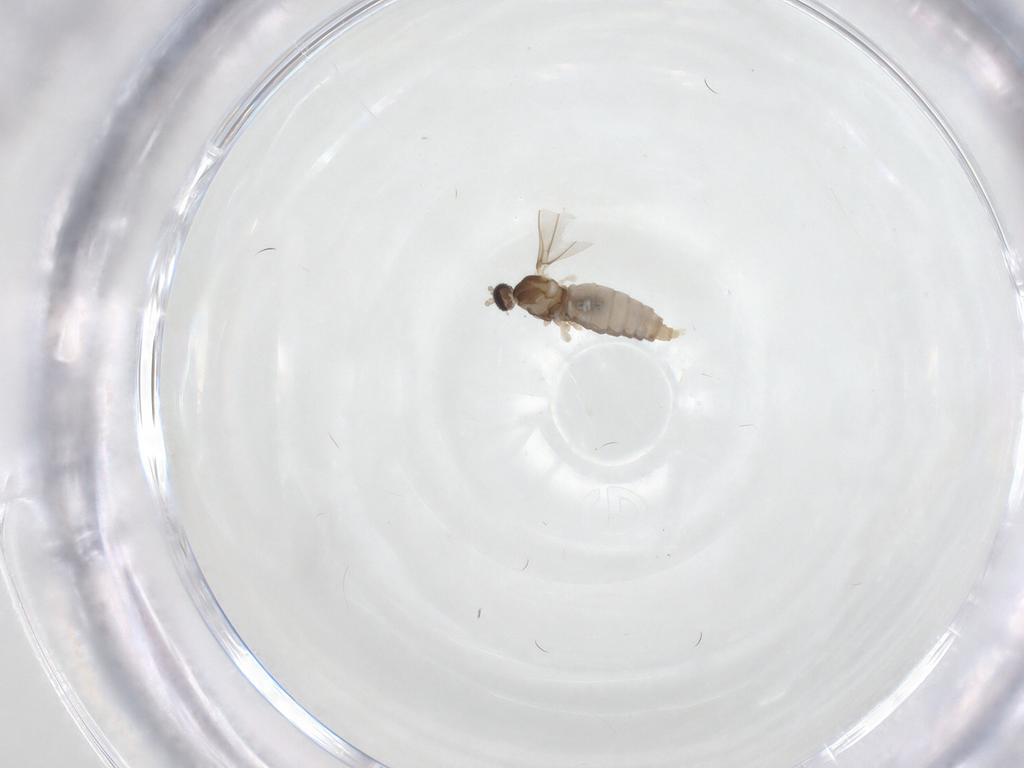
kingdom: Animalia
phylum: Arthropoda
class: Insecta
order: Diptera
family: Cecidomyiidae
